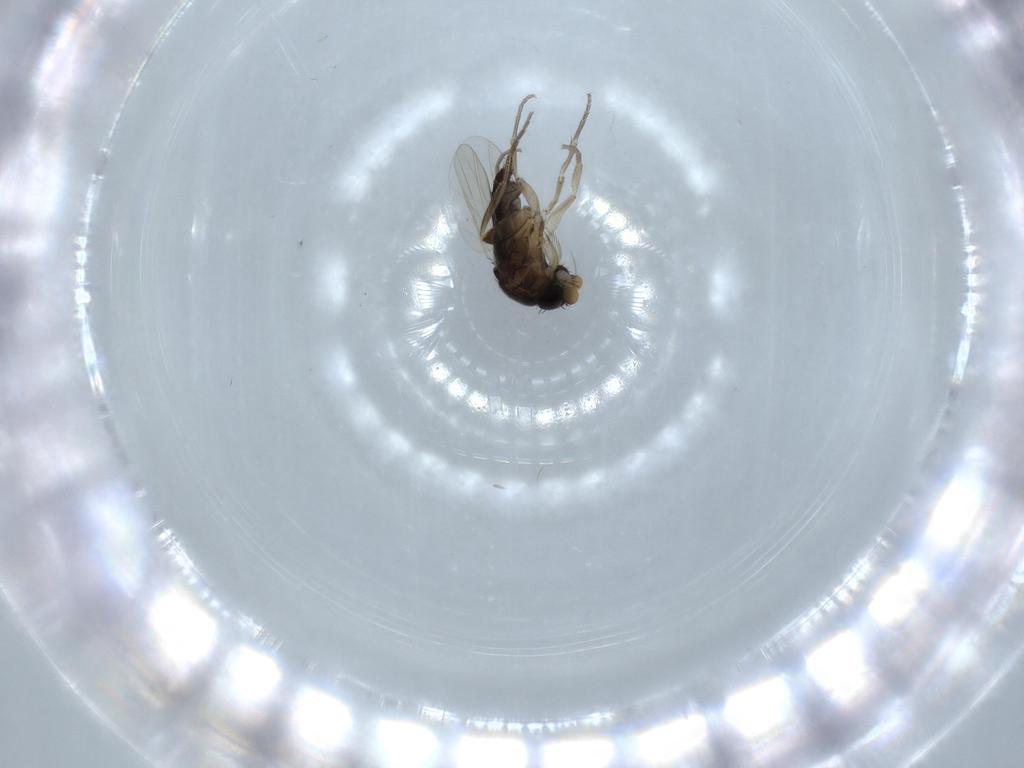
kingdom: Animalia
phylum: Arthropoda
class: Insecta
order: Diptera
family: Phoridae
